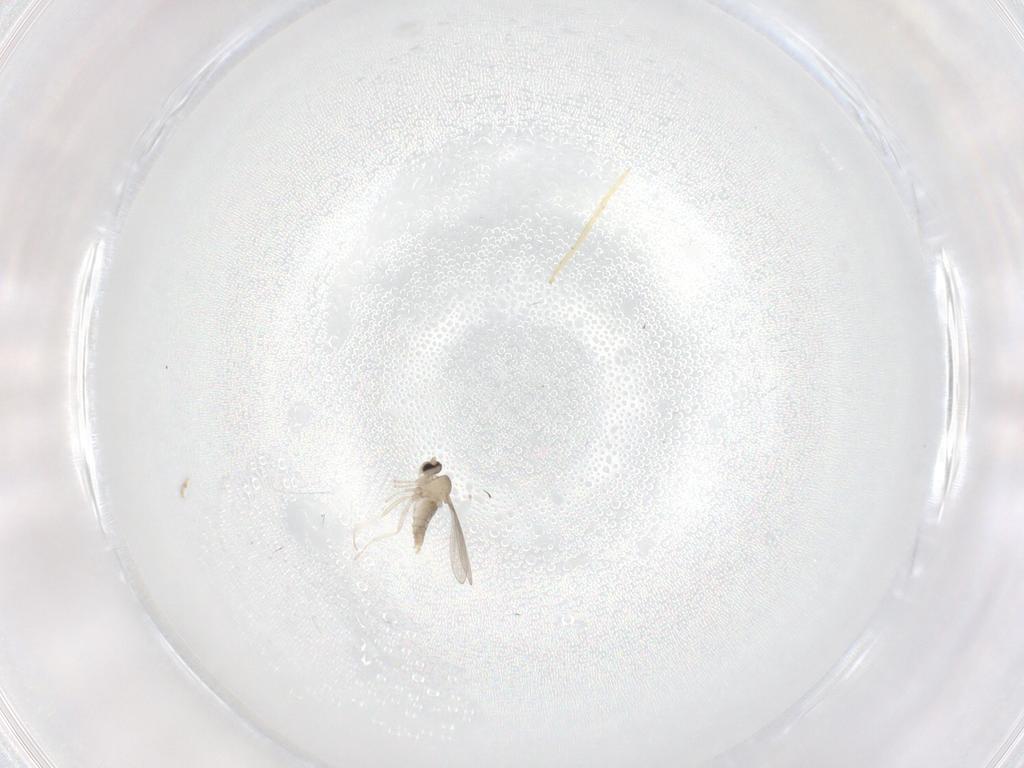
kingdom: Animalia
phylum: Arthropoda
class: Insecta
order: Diptera
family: Cecidomyiidae
